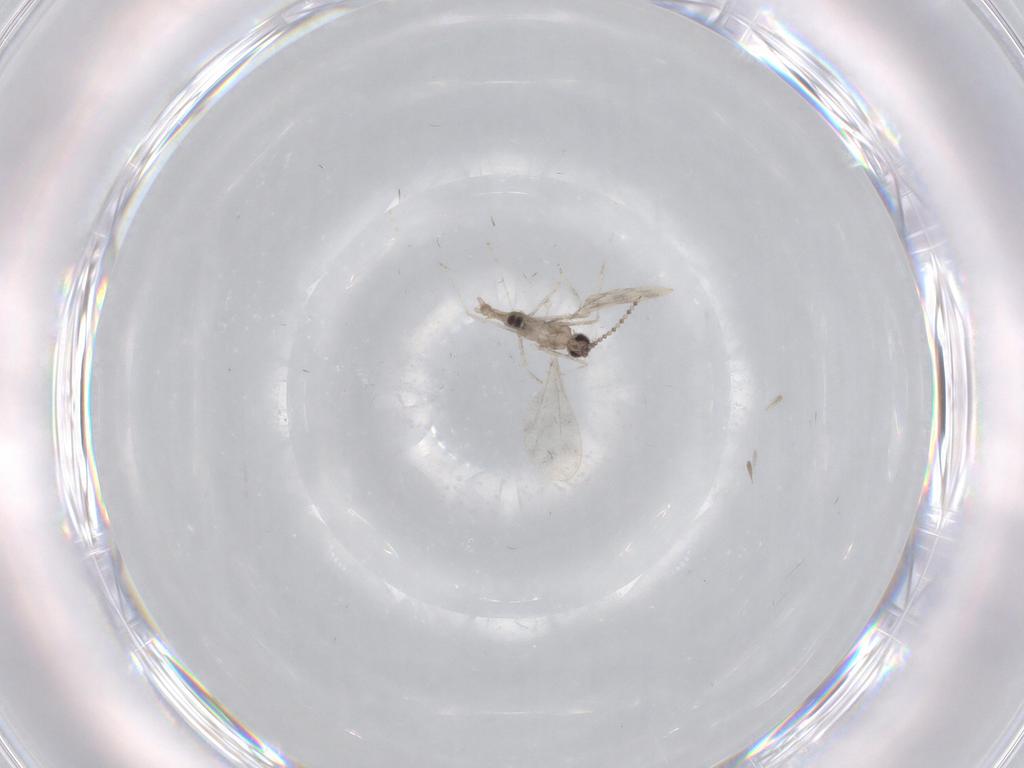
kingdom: Animalia
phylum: Arthropoda
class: Insecta
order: Diptera
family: Cecidomyiidae
